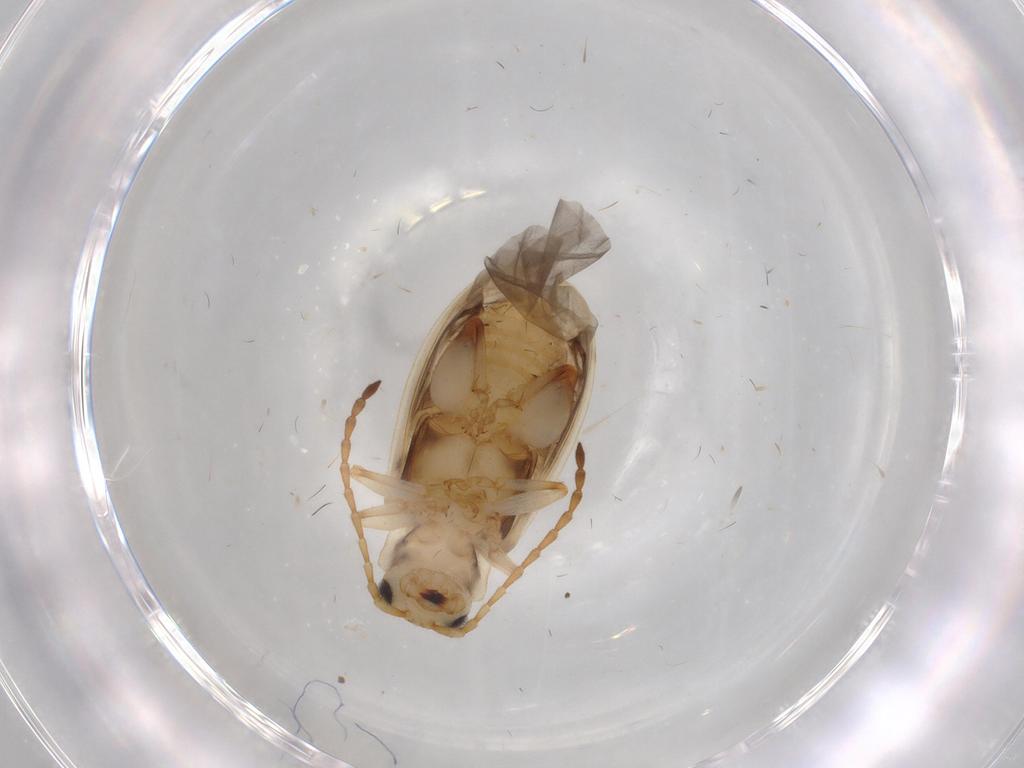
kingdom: Animalia
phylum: Arthropoda
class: Insecta
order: Coleoptera
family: Chrysomelidae
